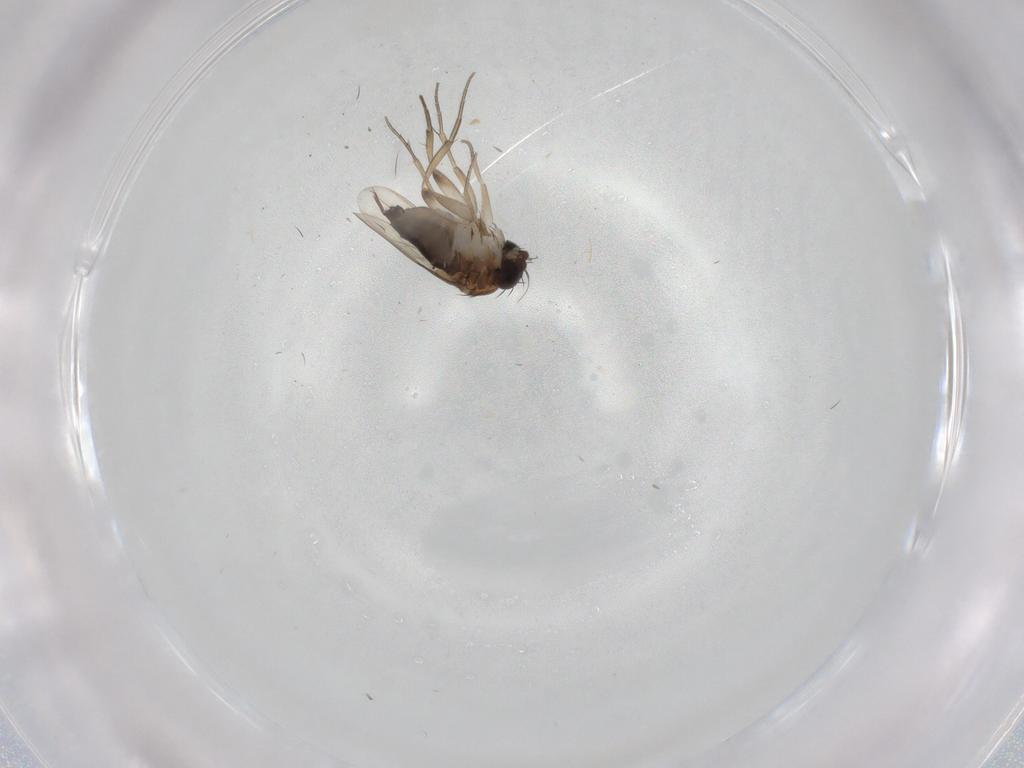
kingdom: Animalia
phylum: Arthropoda
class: Insecta
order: Diptera
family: Phoridae
